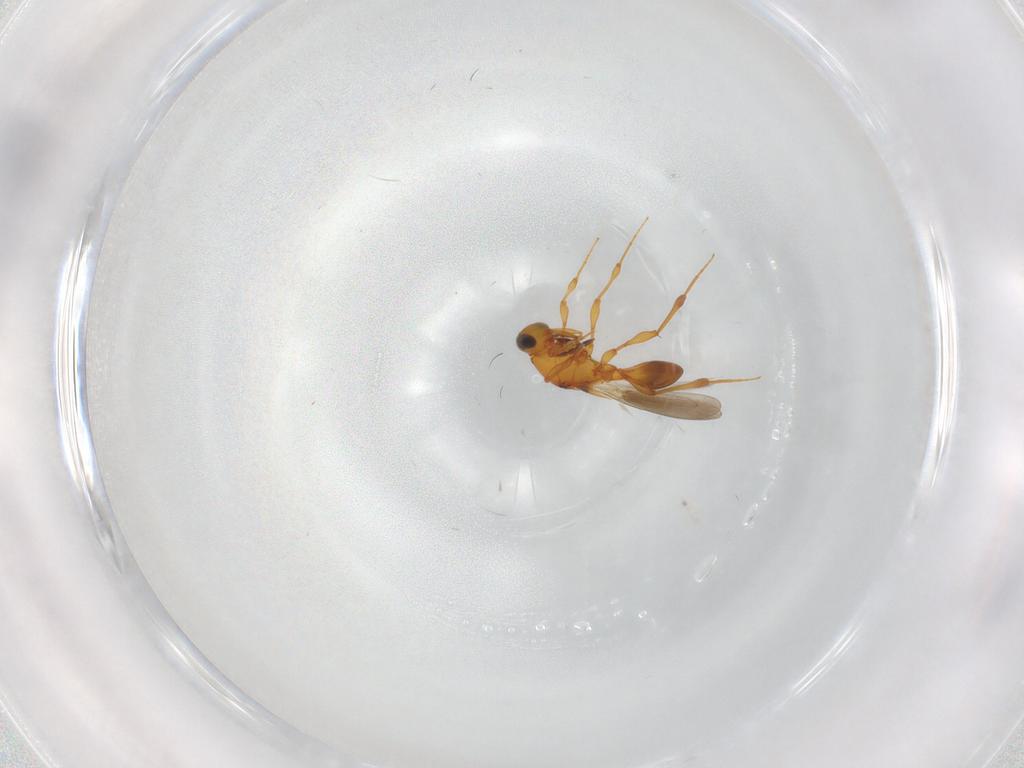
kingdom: Animalia
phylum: Arthropoda
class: Insecta
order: Hymenoptera
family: Platygastridae
